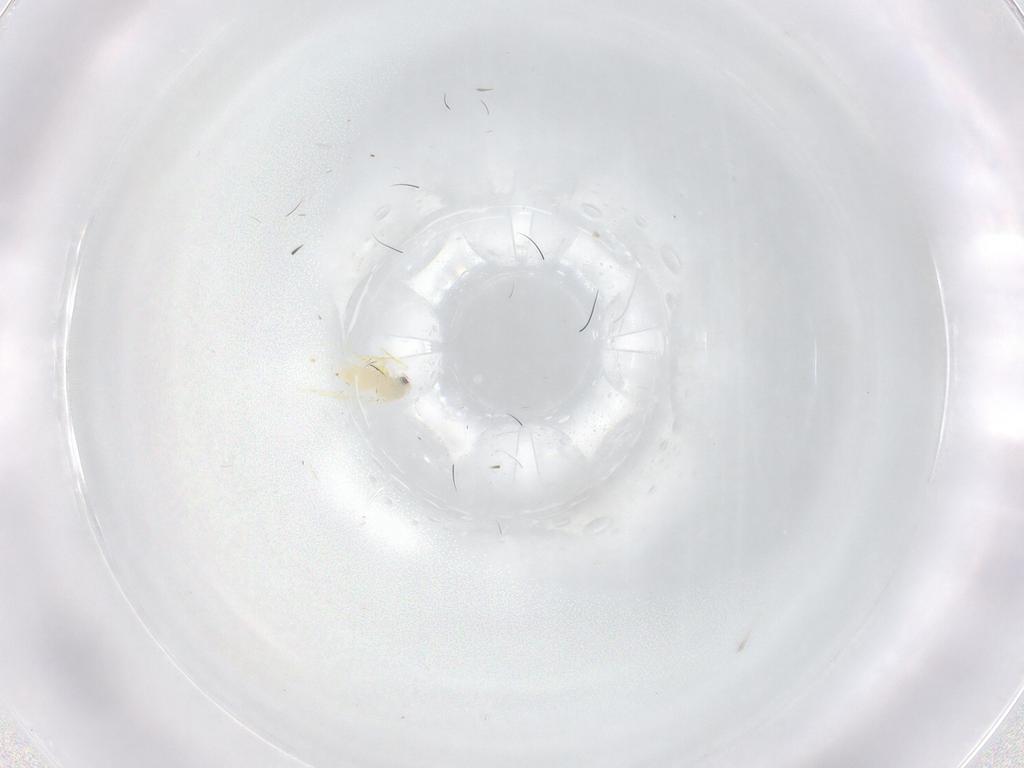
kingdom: Animalia
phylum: Arthropoda
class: Insecta
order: Hemiptera
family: Aleyrodidae
